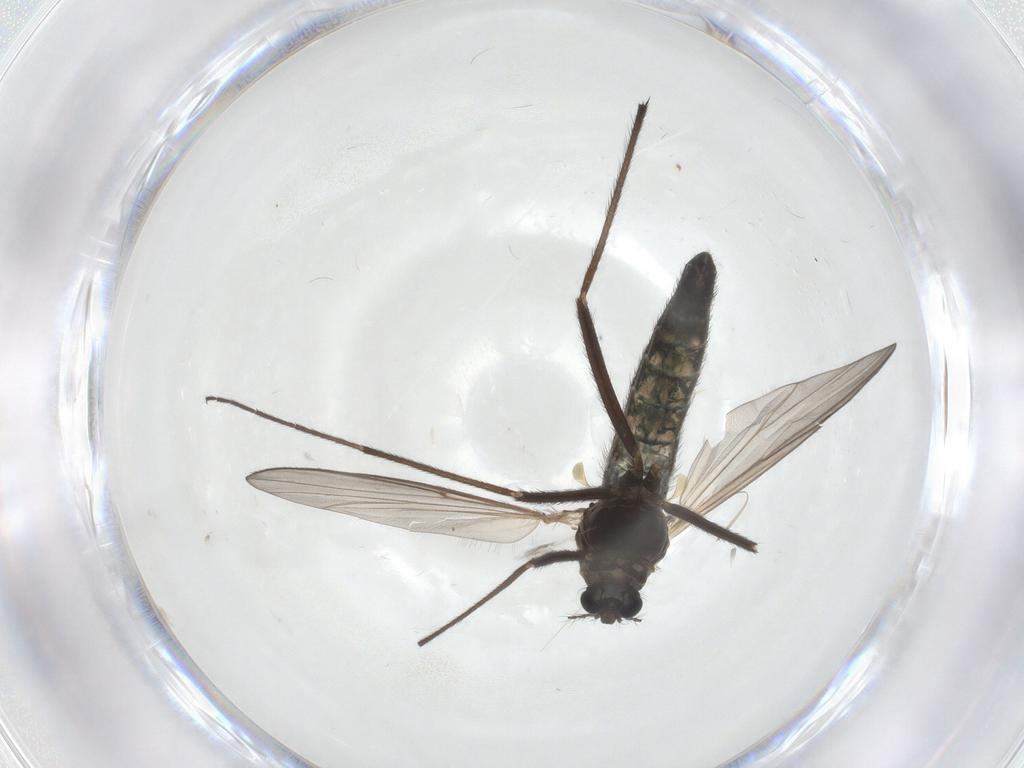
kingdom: Animalia
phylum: Arthropoda
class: Insecta
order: Diptera
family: Chironomidae
